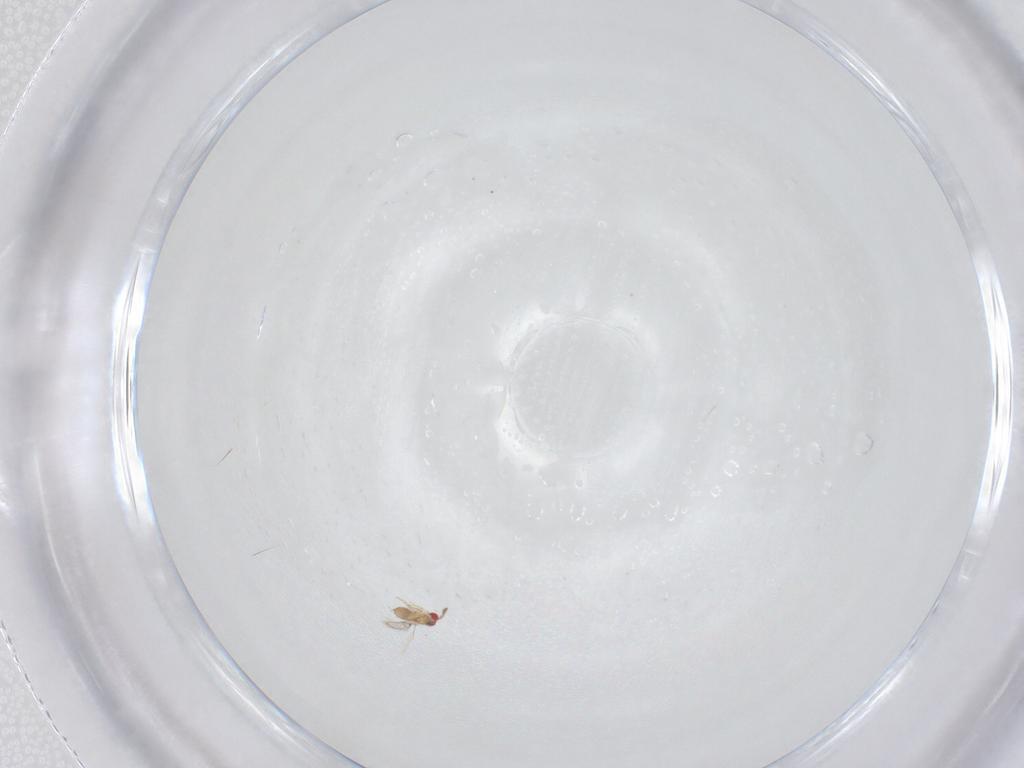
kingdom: Animalia
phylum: Arthropoda
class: Insecta
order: Hymenoptera
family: Trichogrammatidae
